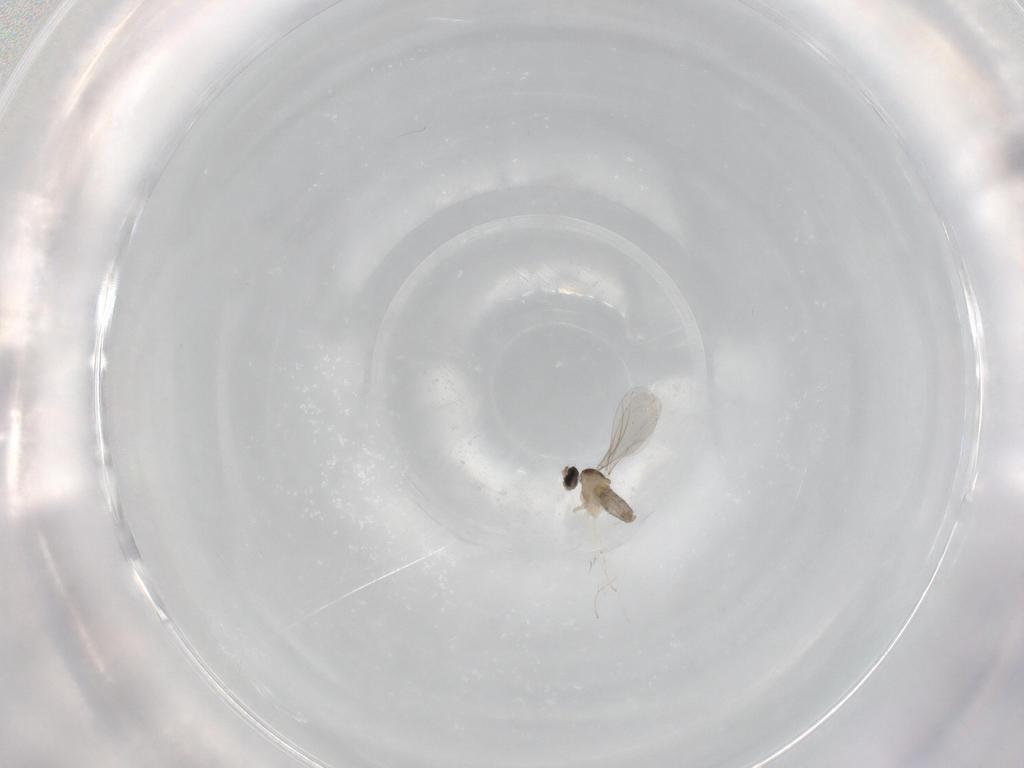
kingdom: Animalia
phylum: Arthropoda
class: Insecta
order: Diptera
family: Cecidomyiidae
